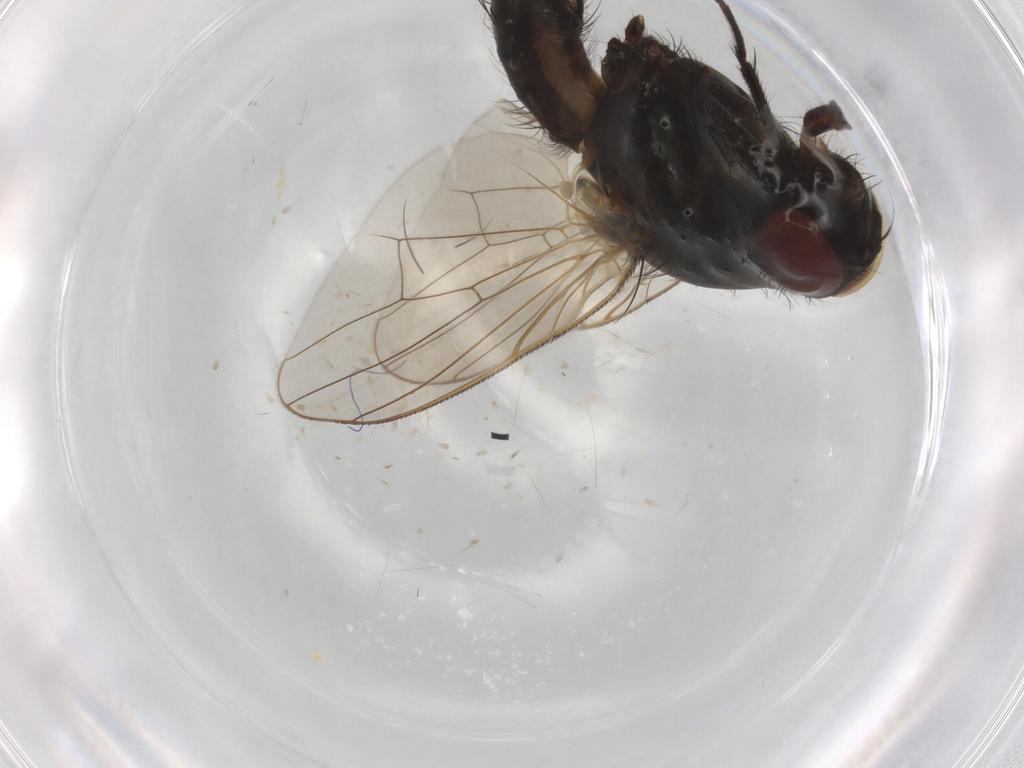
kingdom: Animalia
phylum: Arthropoda
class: Insecta
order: Diptera
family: Anthomyiidae
